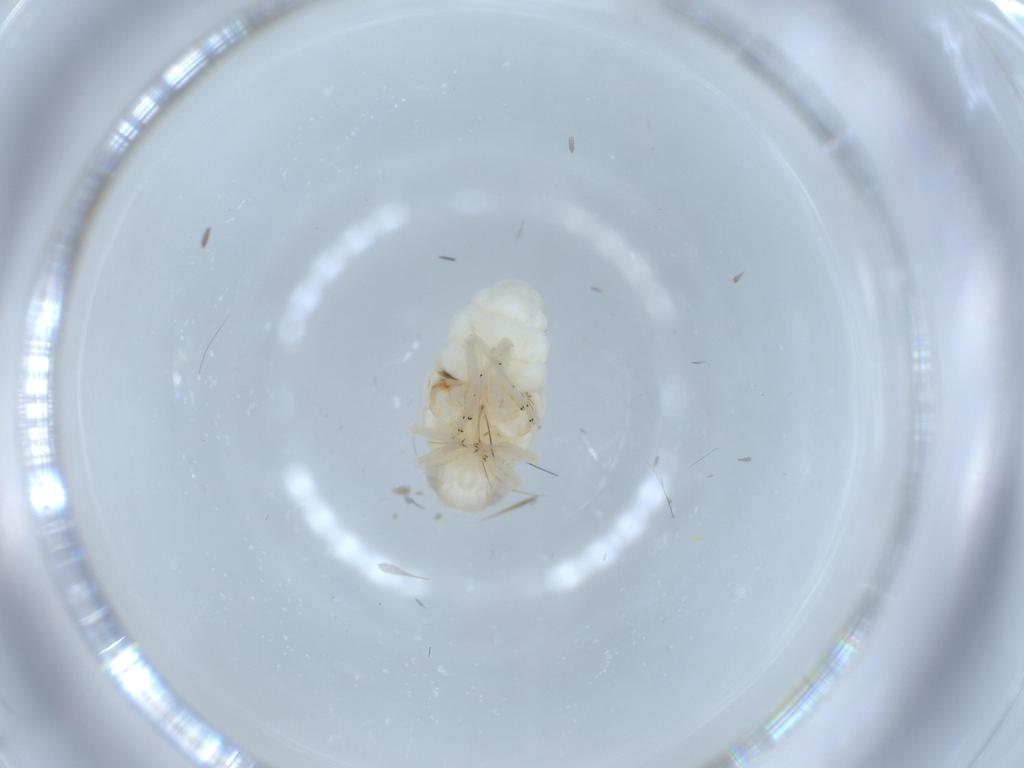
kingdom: Animalia
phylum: Arthropoda
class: Insecta
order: Hemiptera
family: Nogodinidae
